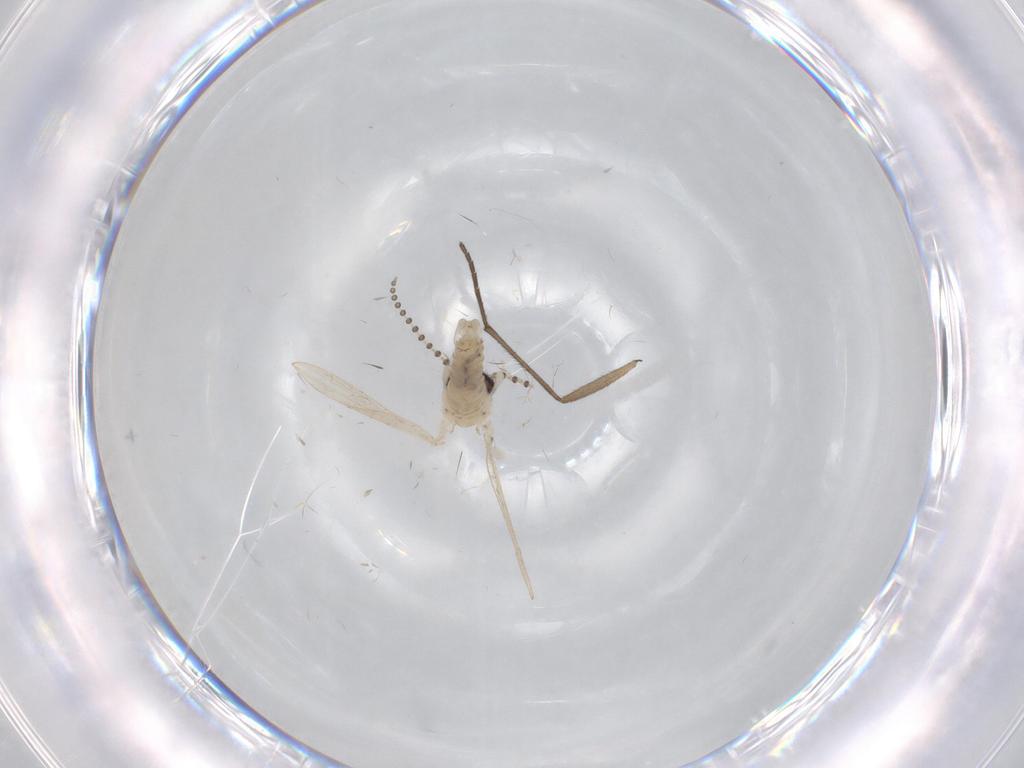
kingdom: Animalia
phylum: Arthropoda
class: Insecta
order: Diptera
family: Psychodidae
